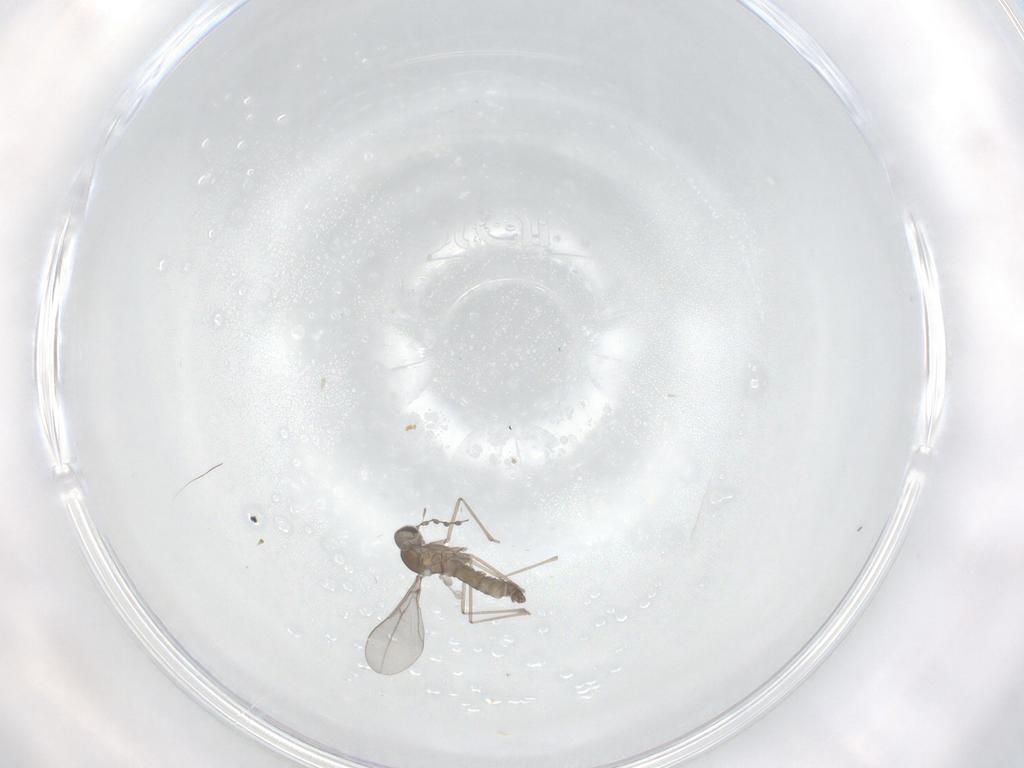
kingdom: Animalia
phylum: Arthropoda
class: Insecta
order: Diptera
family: Cecidomyiidae
